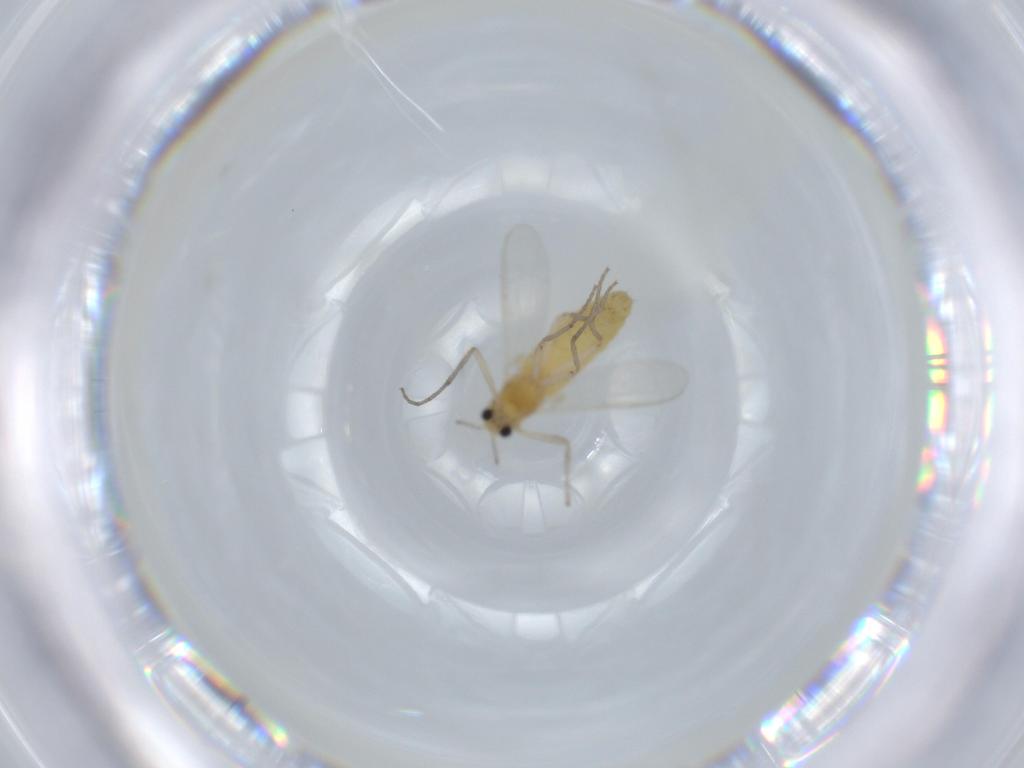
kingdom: Animalia
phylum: Arthropoda
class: Insecta
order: Diptera
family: Chironomidae
